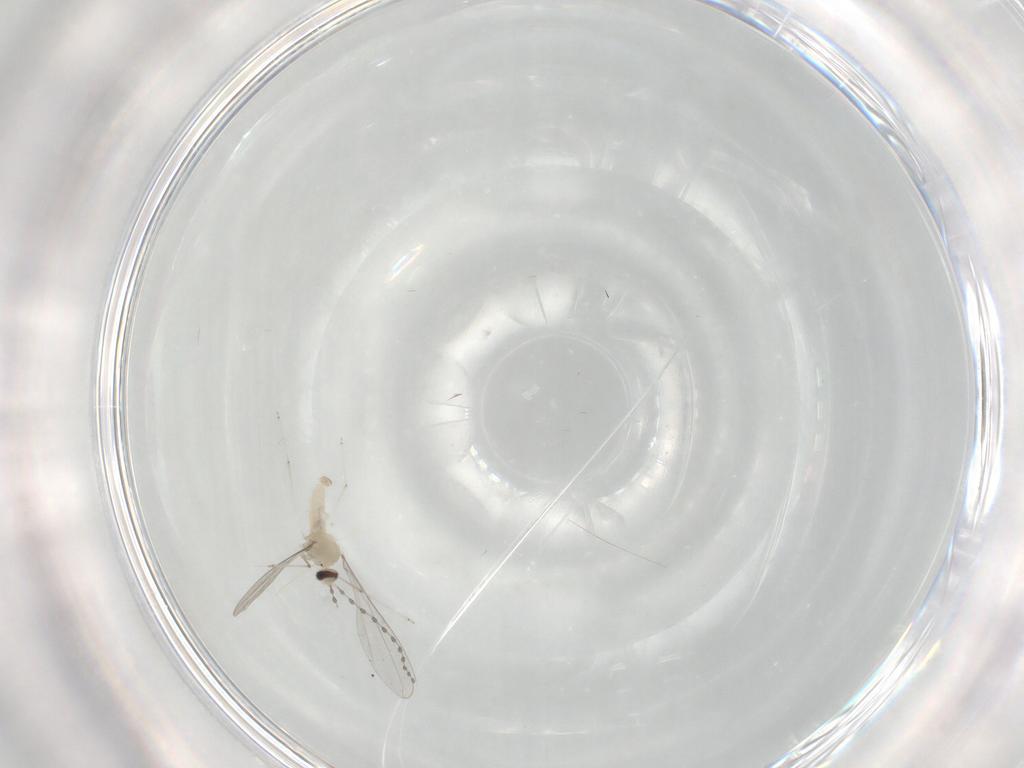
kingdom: Animalia
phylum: Arthropoda
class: Insecta
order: Diptera
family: Cecidomyiidae
